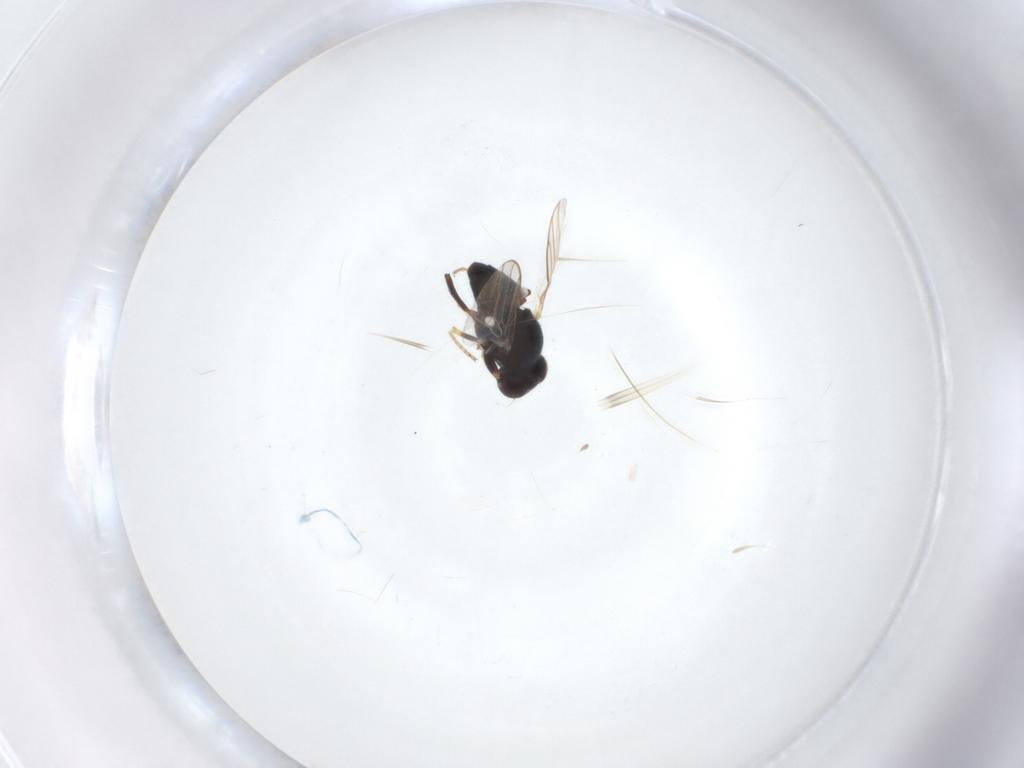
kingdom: Animalia
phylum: Arthropoda
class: Insecta
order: Diptera
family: Chloropidae
